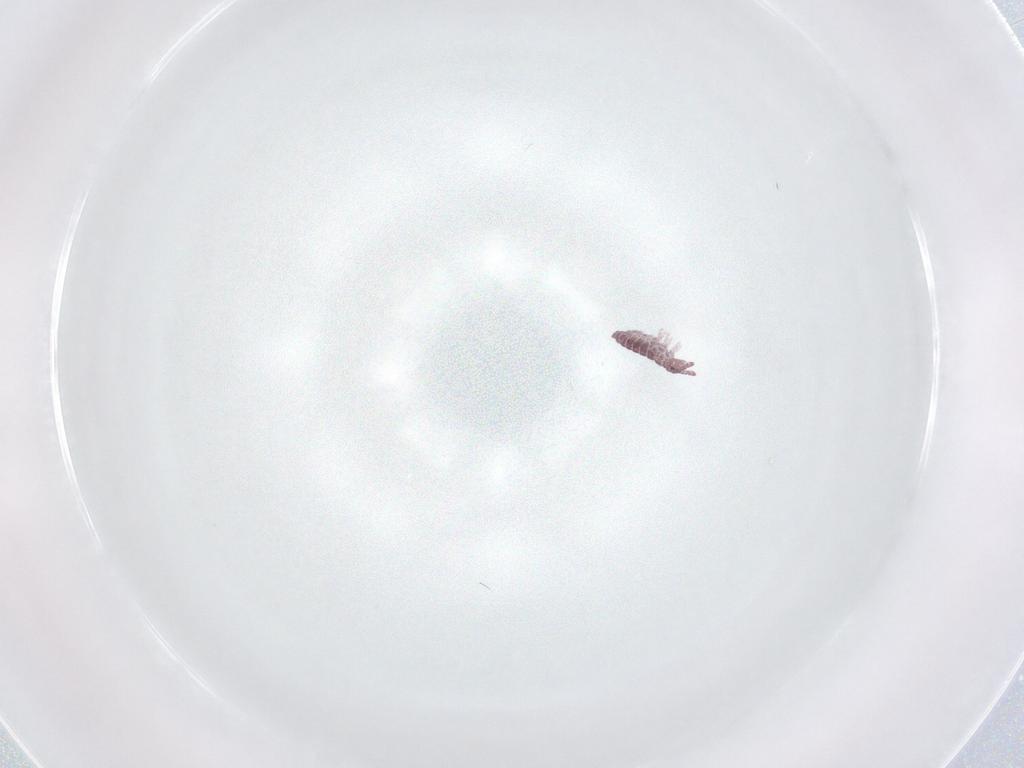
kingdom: Animalia
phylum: Arthropoda
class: Collembola
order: Poduromorpha
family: Hypogastruridae
